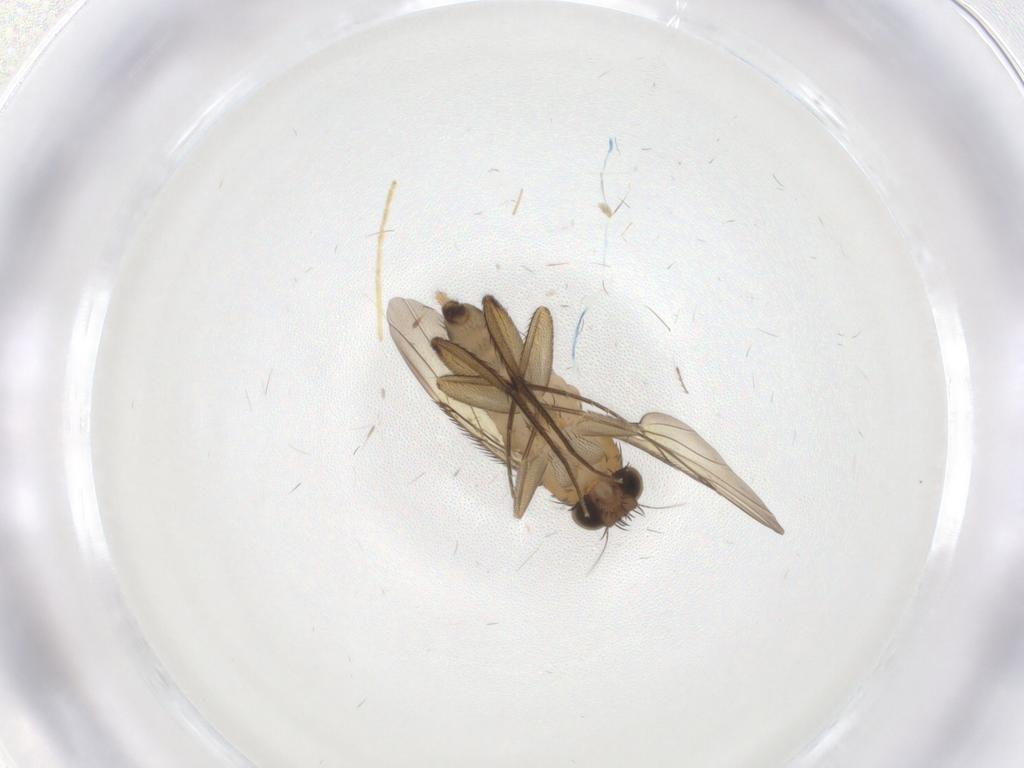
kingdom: Animalia
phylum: Arthropoda
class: Insecta
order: Diptera
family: Phoridae
